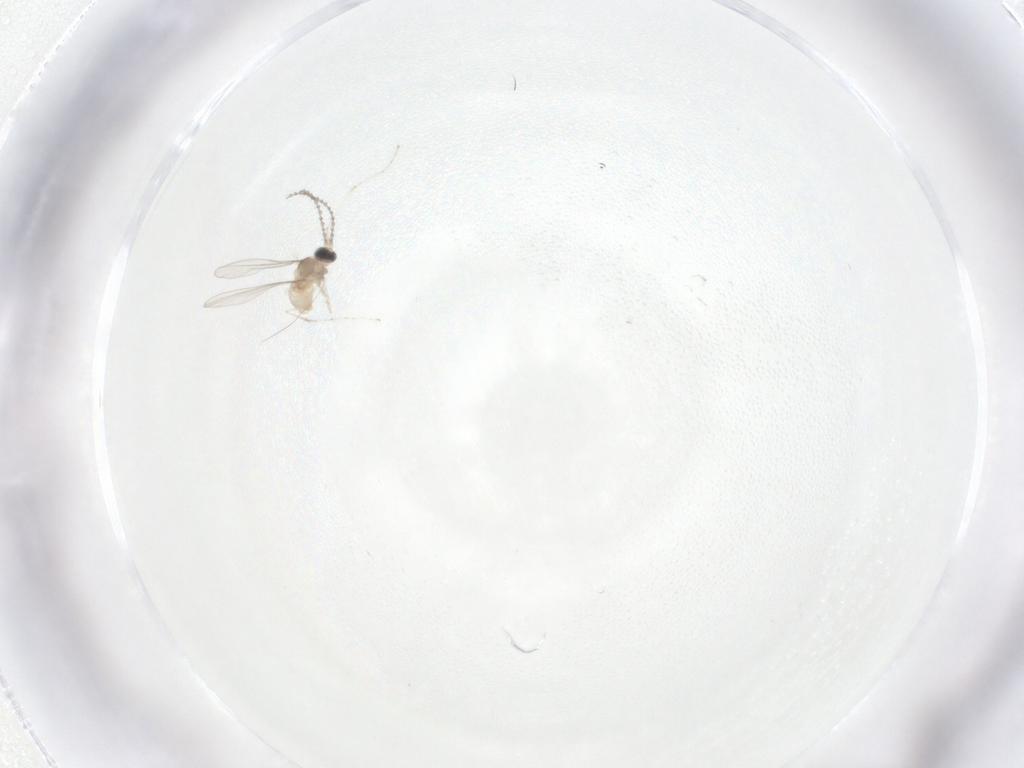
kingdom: Animalia
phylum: Arthropoda
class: Insecta
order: Diptera
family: Cecidomyiidae
